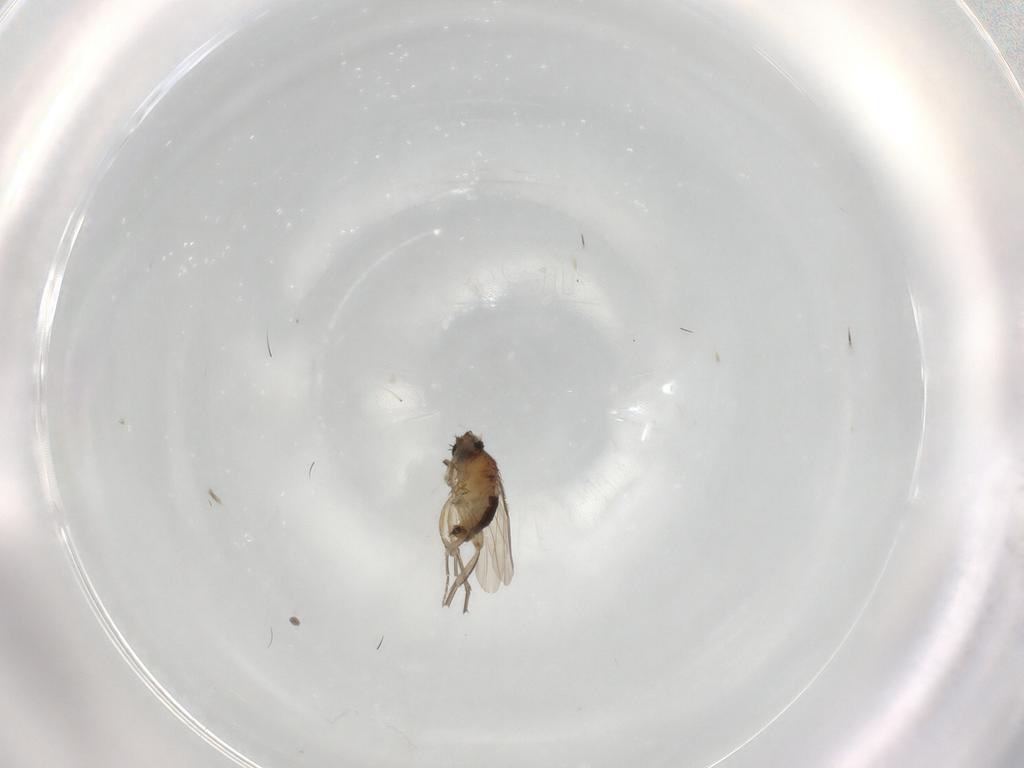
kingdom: Animalia
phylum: Arthropoda
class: Insecta
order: Diptera
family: Phoridae
